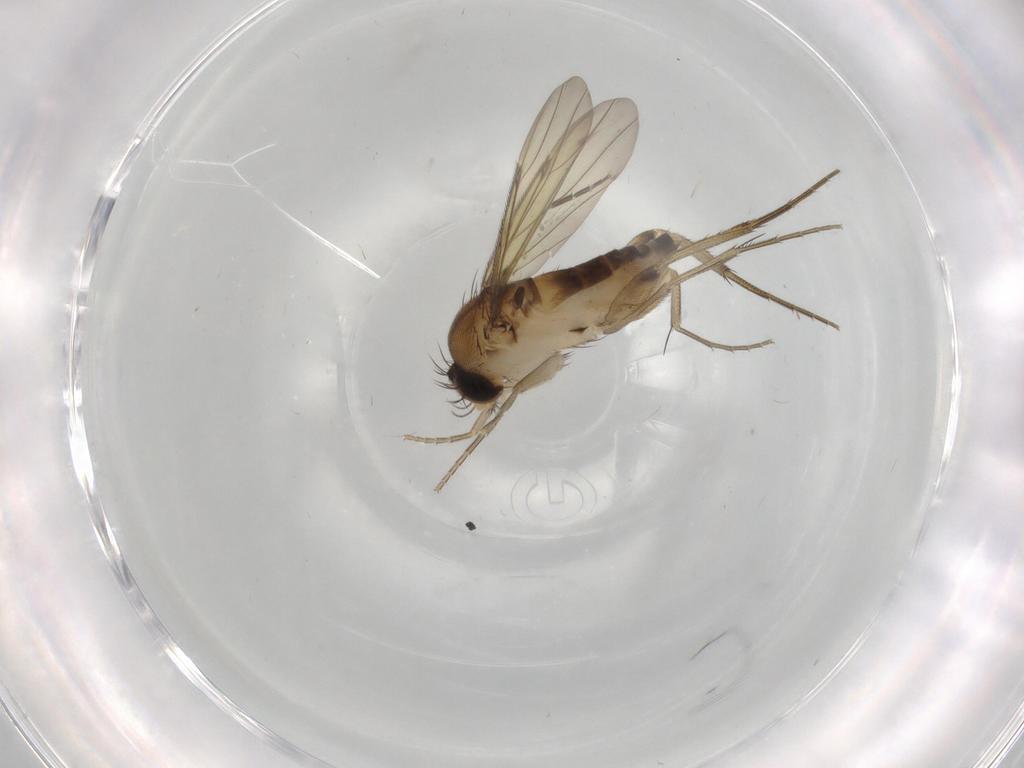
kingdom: Animalia
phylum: Arthropoda
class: Insecta
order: Diptera
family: Phoridae
